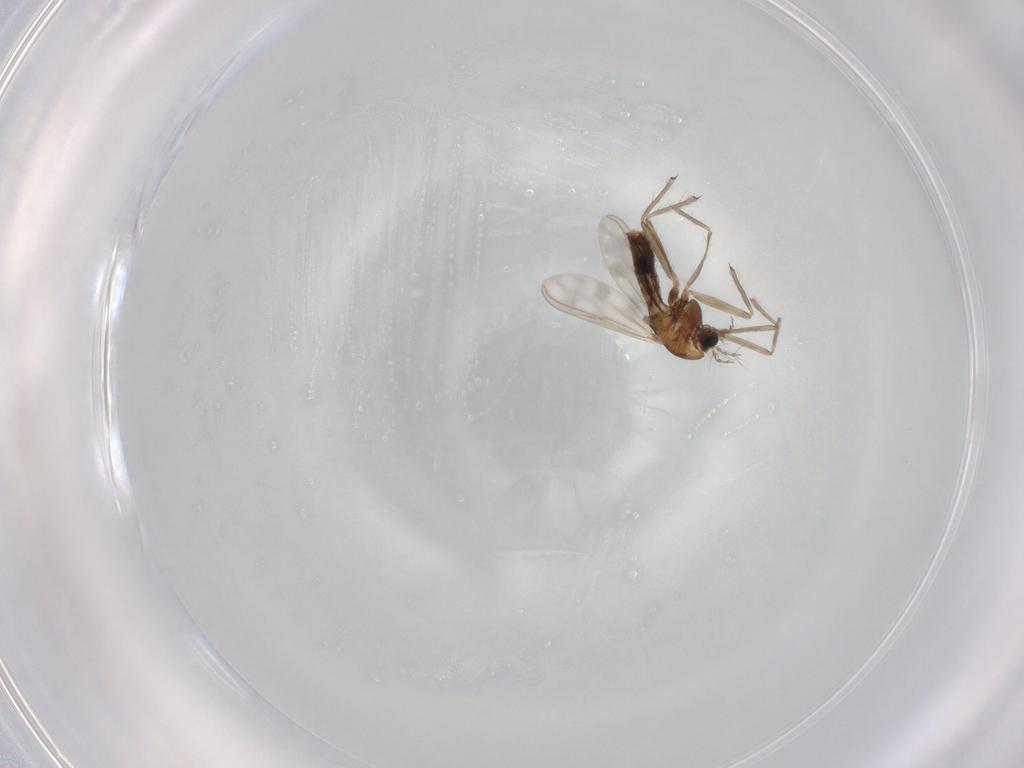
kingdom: Animalia
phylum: Arthropoda
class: Insecta
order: Diptera
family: Chironomidae
